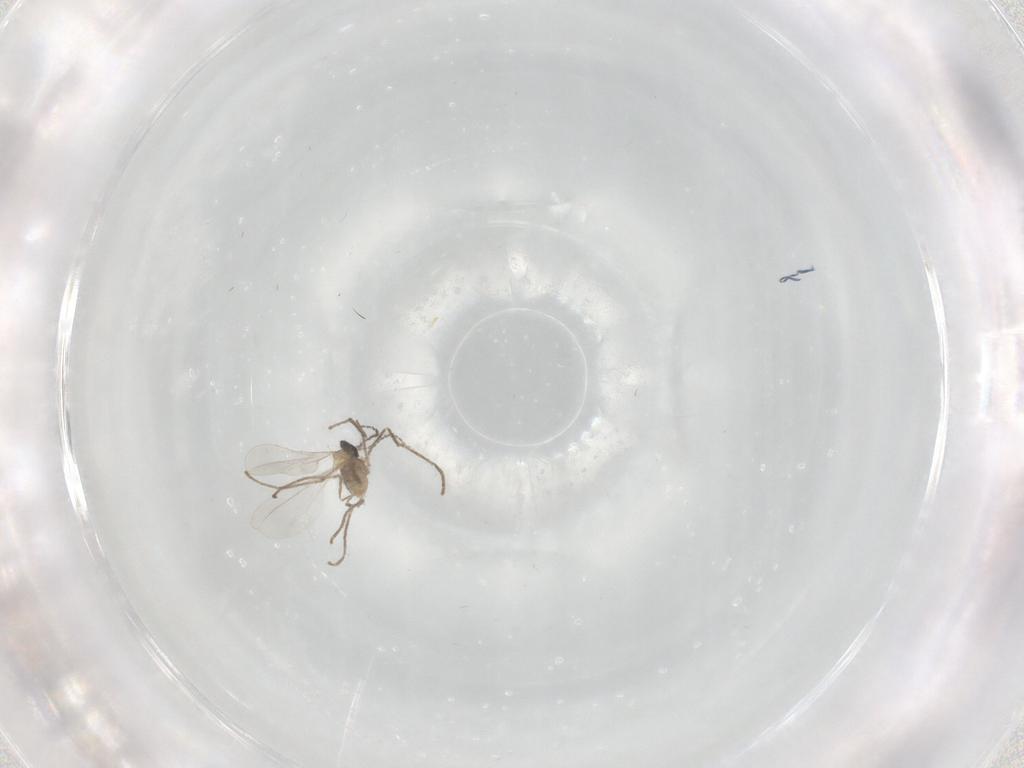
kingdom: Animalia
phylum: Arthropoda
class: Insecta
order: Diptera
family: Cecidomyiidae
